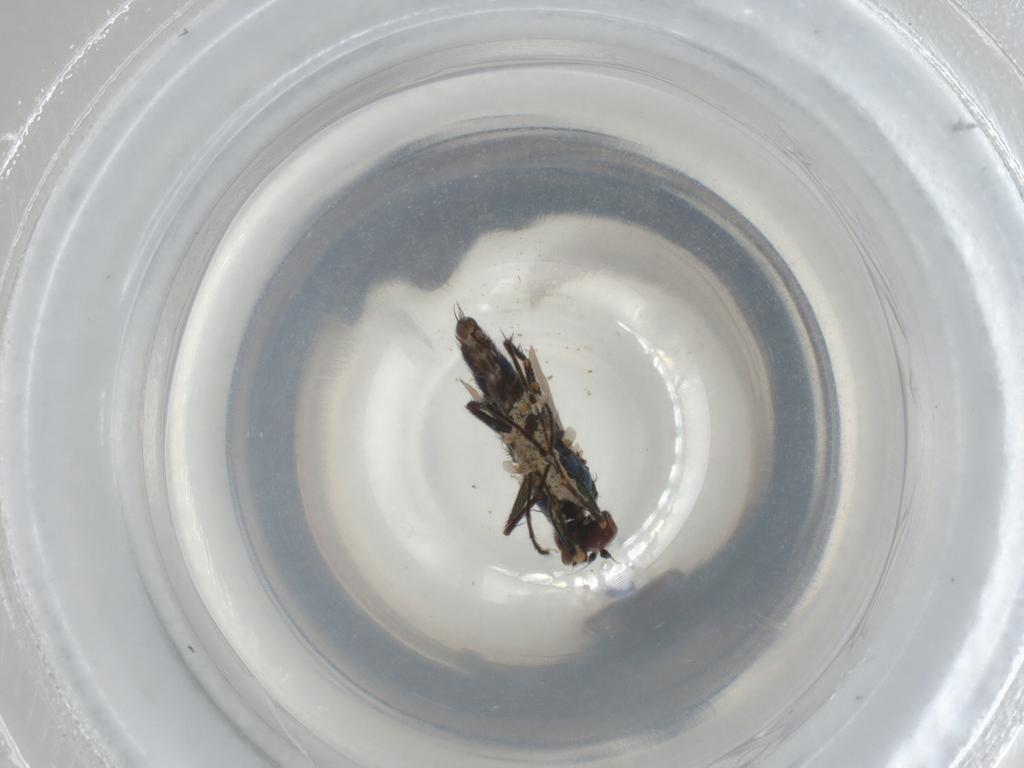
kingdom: Animalia
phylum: Arthropoda
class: Insecta
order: Diptera
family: Dolichopodidae
